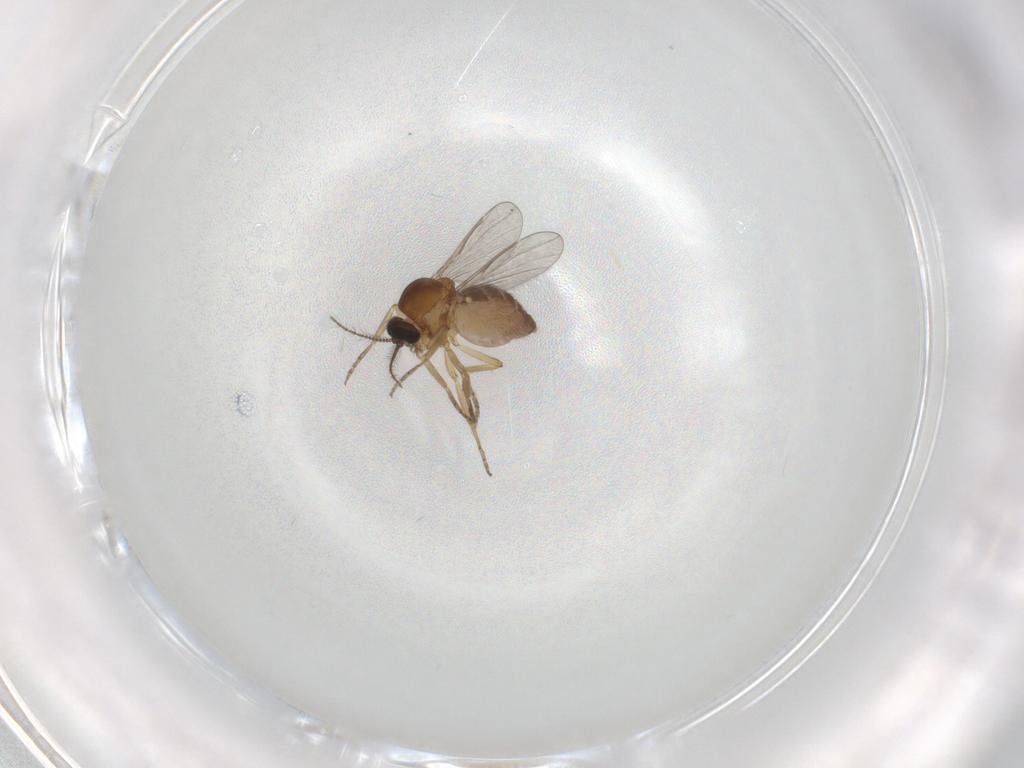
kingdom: Animalia
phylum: Arthropoda
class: Insecta
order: Diptera
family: Ceratopogonidae
